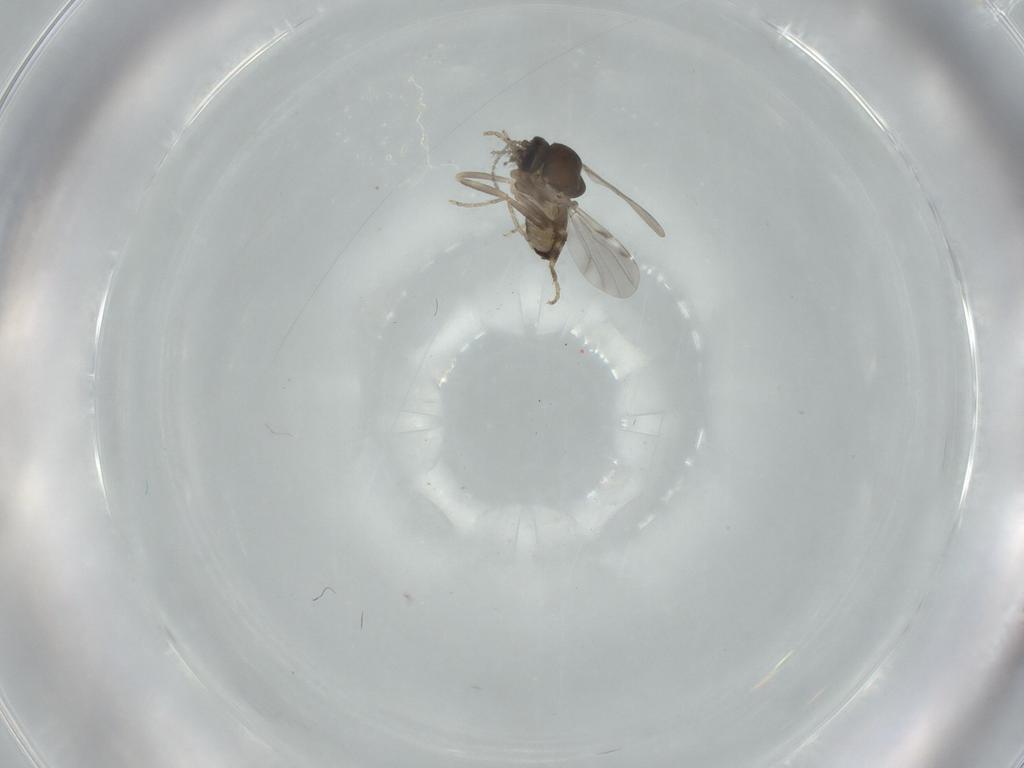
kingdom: Animalia
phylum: Arthropoda
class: Insecta
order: Diptera
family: Ceratopogonidae
